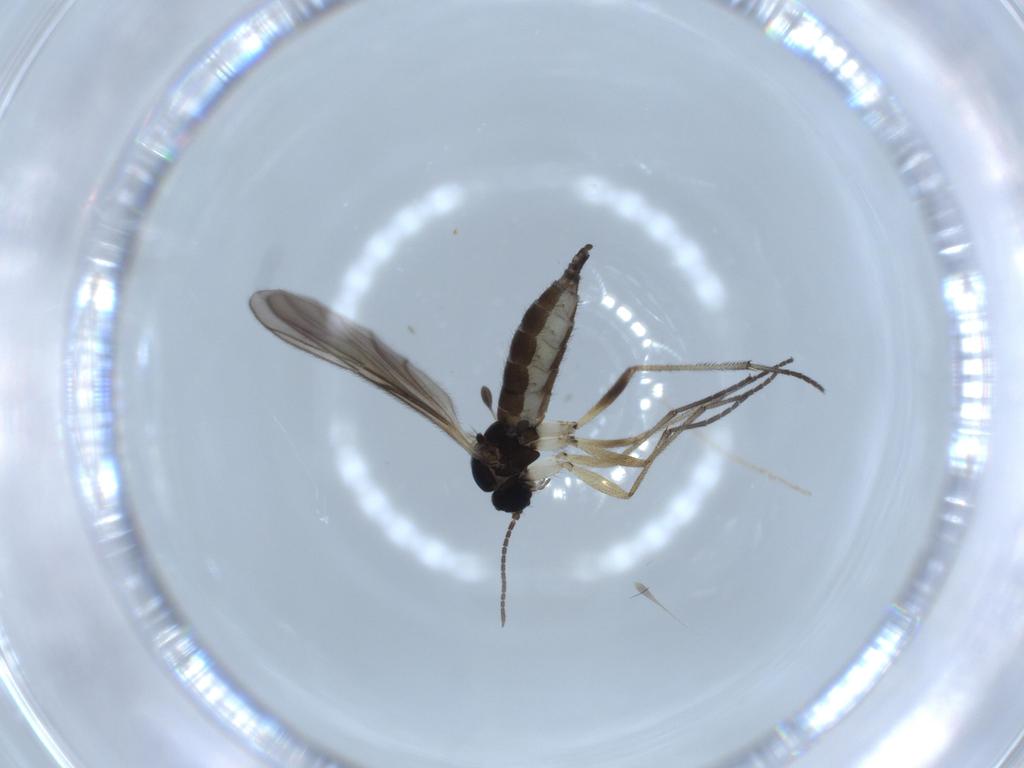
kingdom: Animalia
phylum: Arthropoda
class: Insecta
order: Diptera
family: Sciaridae
